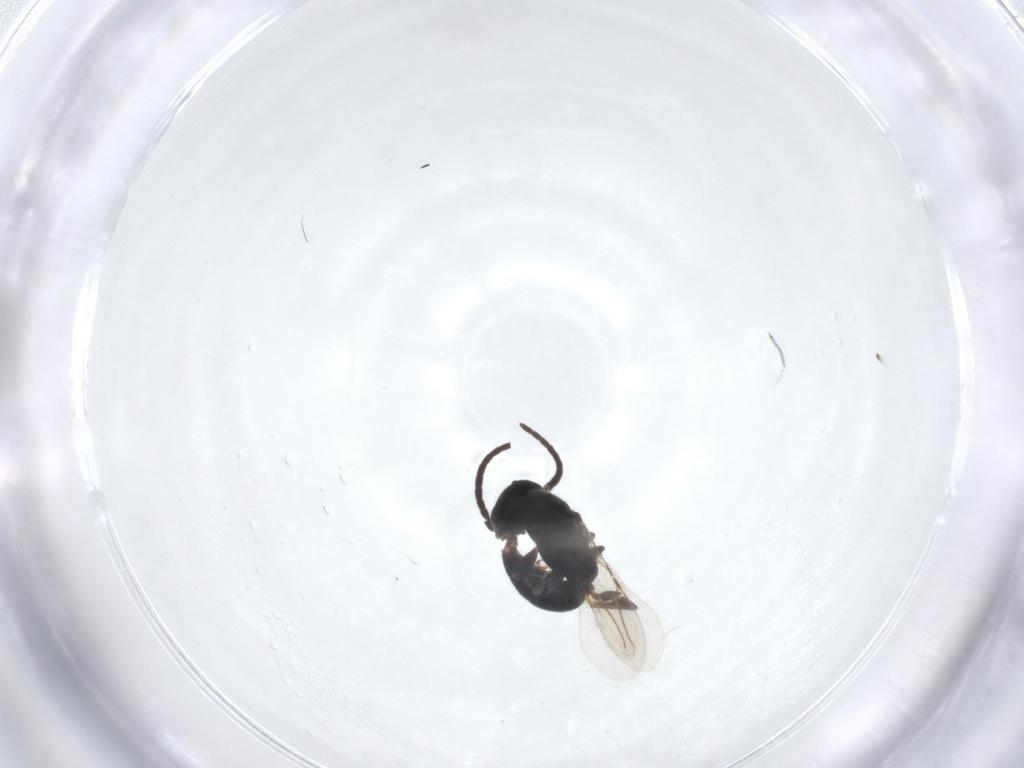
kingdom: Animalia
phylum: Arthropoda
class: Insecta
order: Hymenoptera
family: Bethylidae
